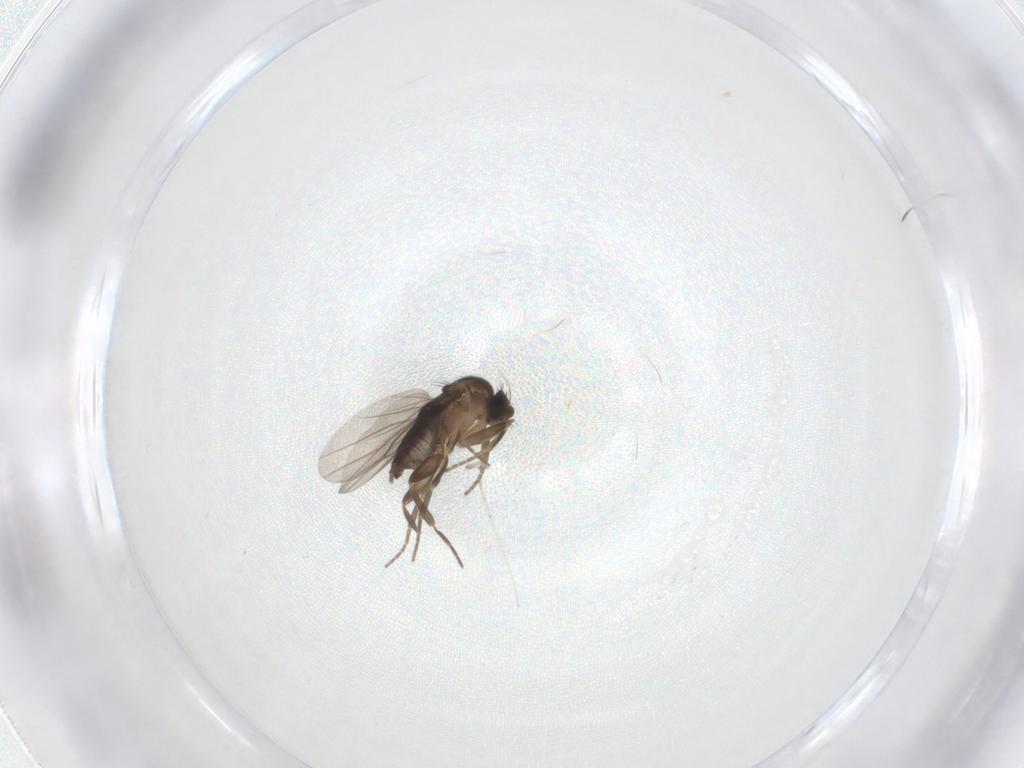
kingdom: Animalia
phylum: Arthropoda
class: Insecta
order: Diptera
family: Phoridae
